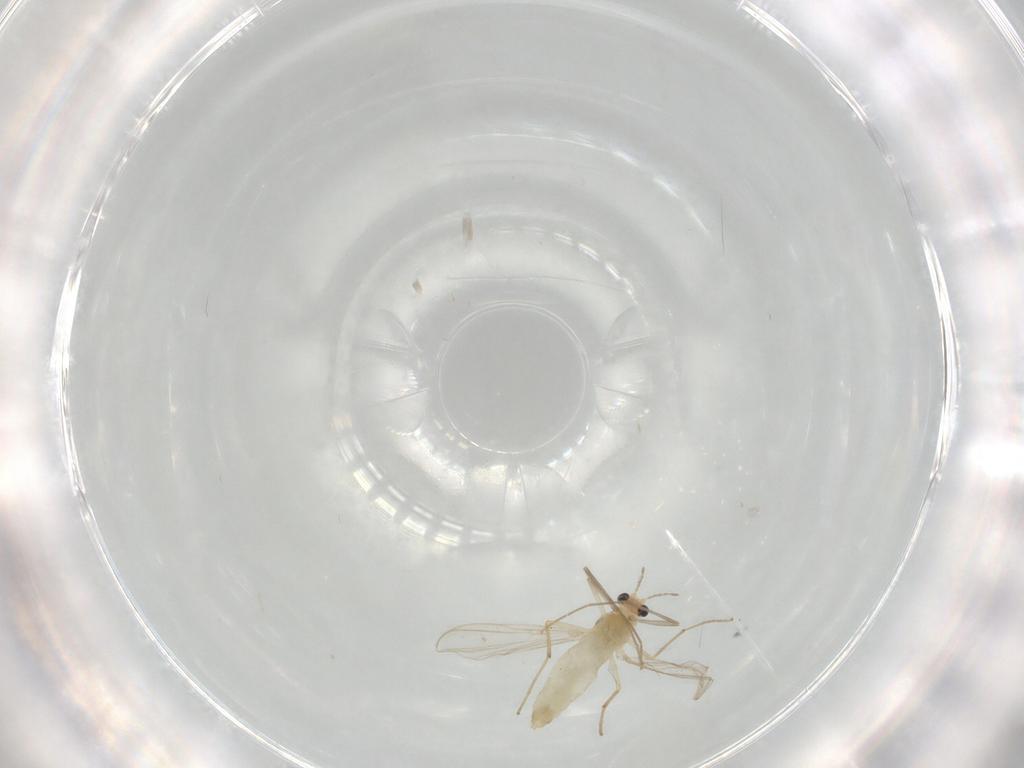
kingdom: Animalia
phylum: Arthropoda
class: Insecta
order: Diptera
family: Chironomidae
